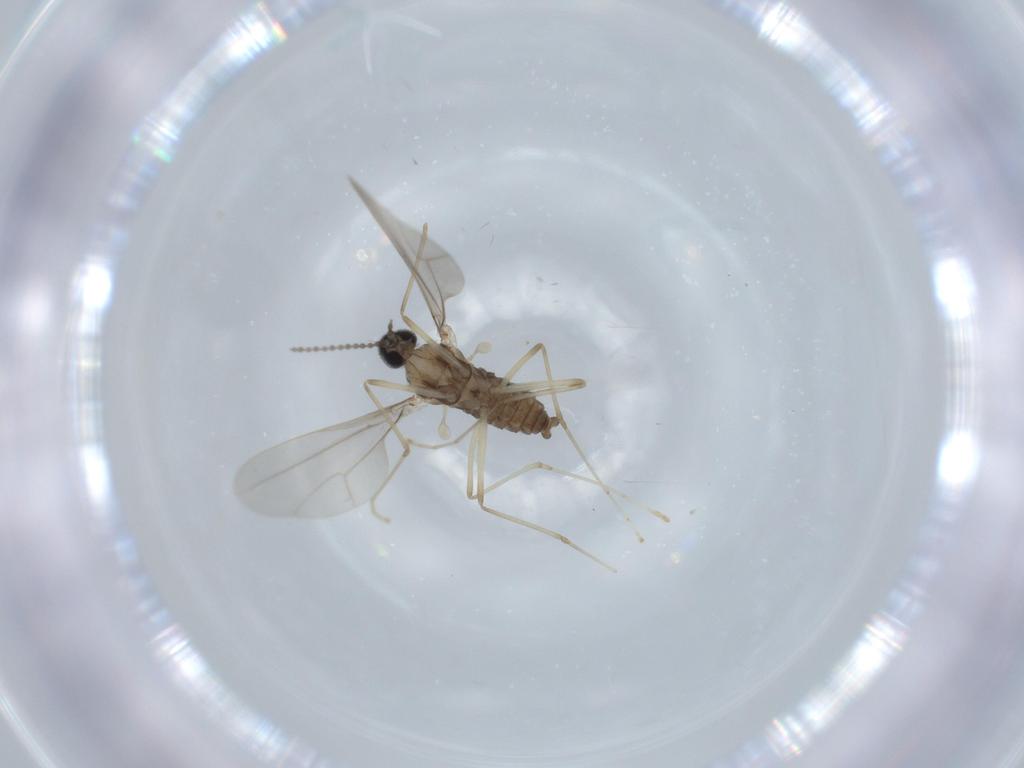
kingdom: Animalia
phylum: Arthropoda
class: Insecta
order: Diptera
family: Cecidomyiidae
